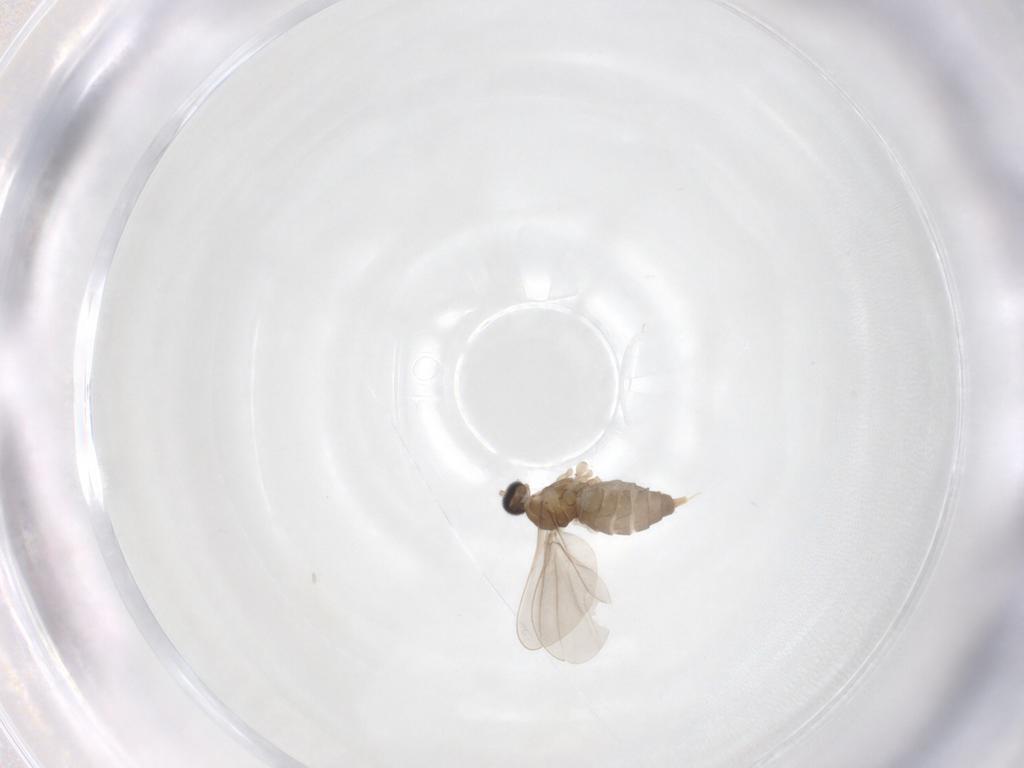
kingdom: Animalia
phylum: Arthropoda
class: Insecta
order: Diptera
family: Cecidomyiidae
